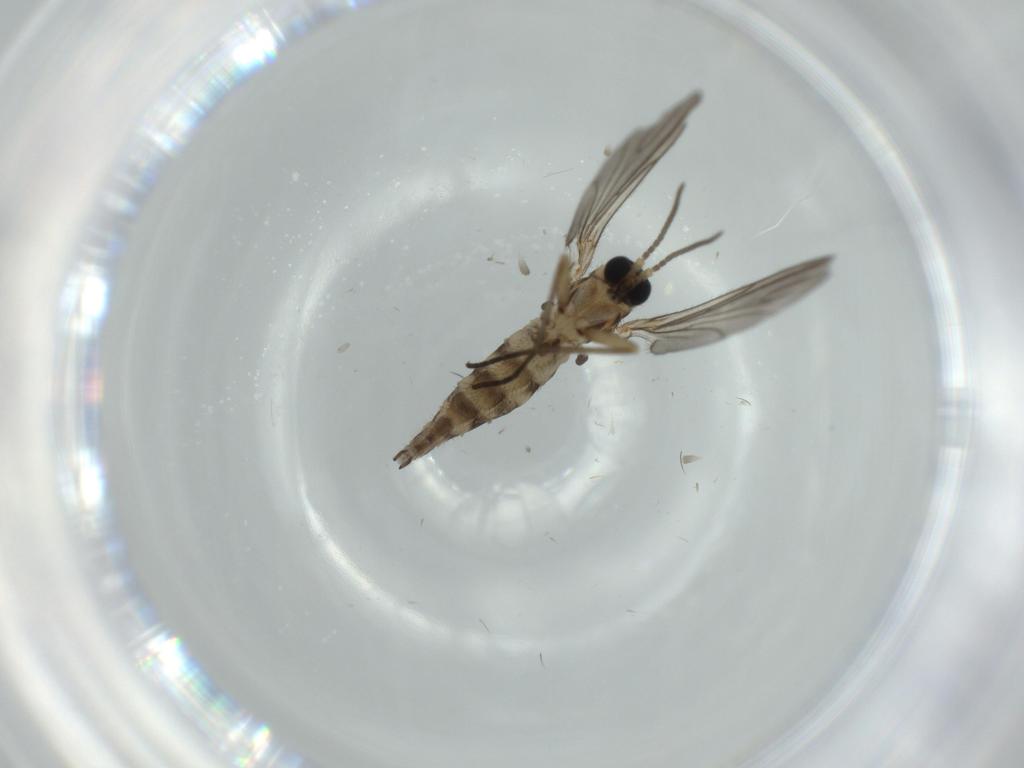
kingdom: Animalia
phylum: Arthropoda
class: Insecta
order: Diptera
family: Sciaridae
